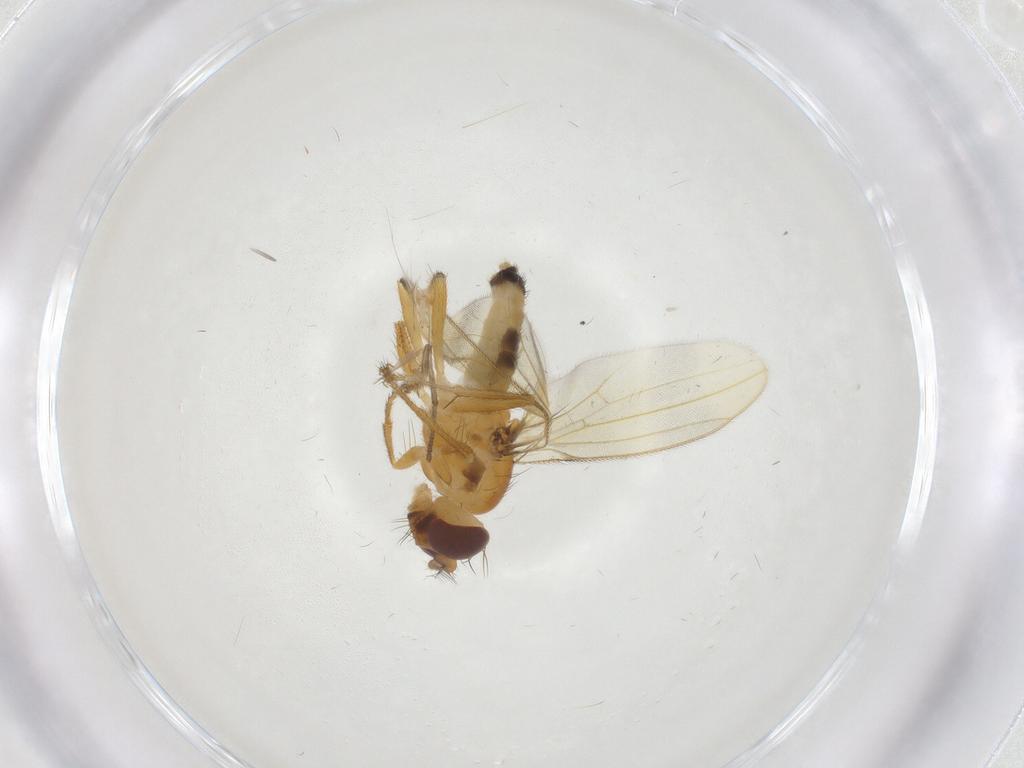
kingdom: Animalia
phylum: Arthropoda
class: Insecta
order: Diptera
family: Periscelididae
